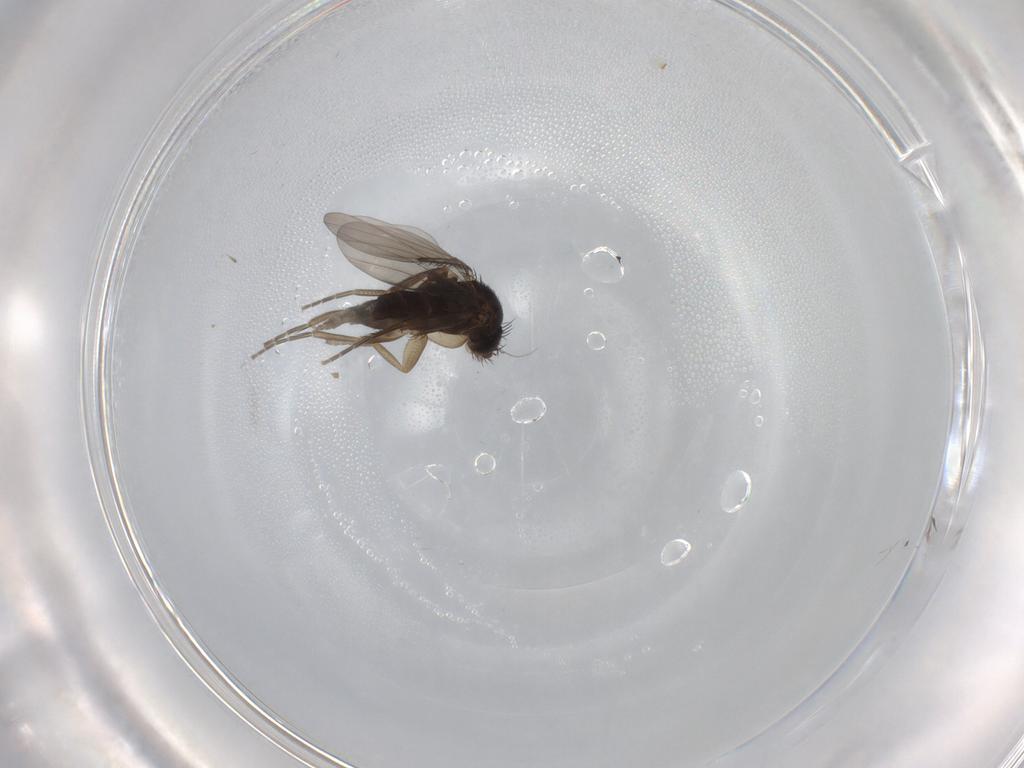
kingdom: Animalia
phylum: Arthropoda
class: Insecta
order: Diptera
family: Phoridae
